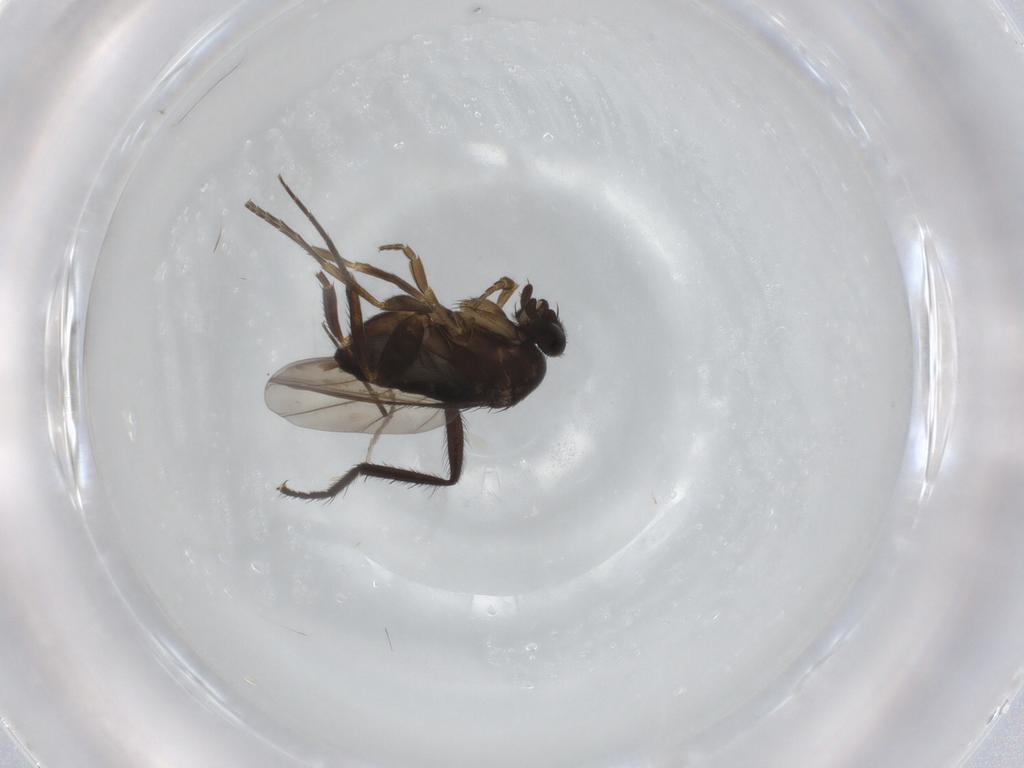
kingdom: Animalia
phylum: Arthropoda
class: Insecta
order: Diptera
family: Phoridae
